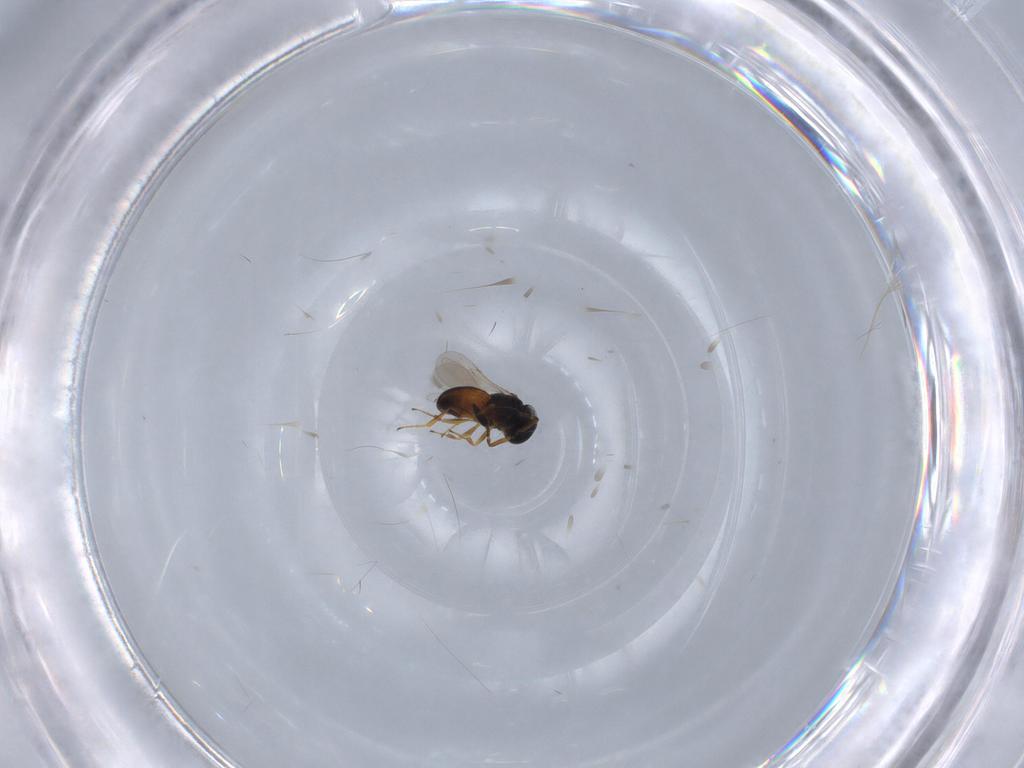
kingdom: Animalia
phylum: Arthropoda
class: Insecta
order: Hymenoptera
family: Scelionidae
